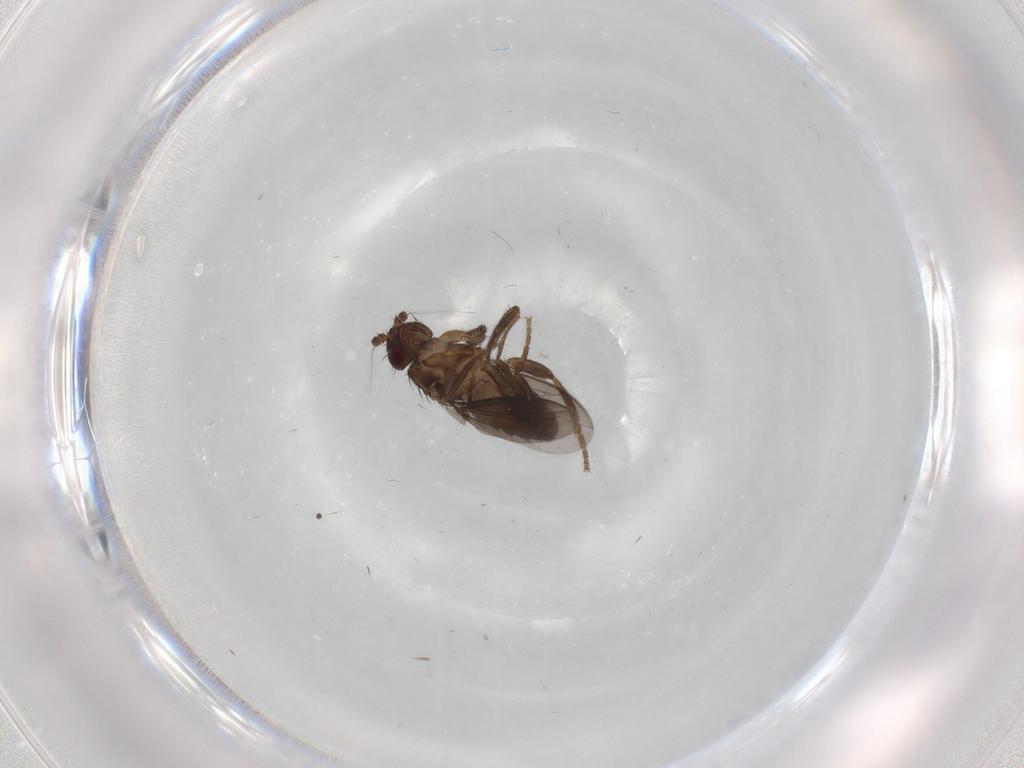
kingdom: Animalia
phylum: Arthropoda
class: Insecta
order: Diptera
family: Sphaeroceridae
